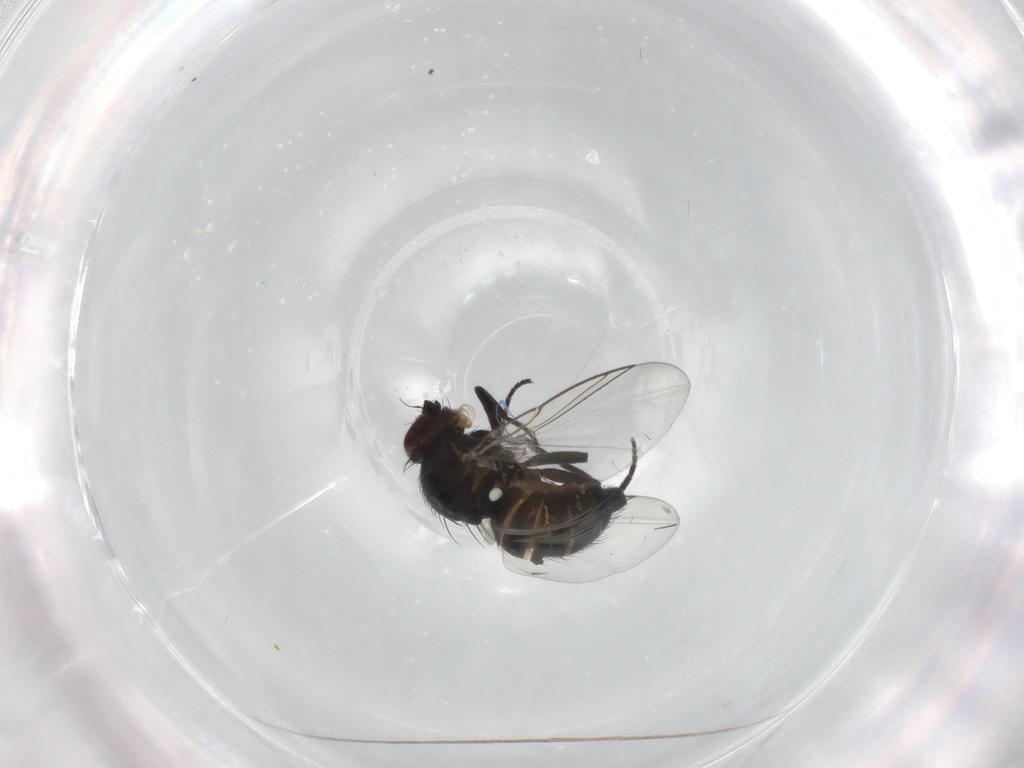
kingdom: Animalia
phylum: Arthropoda
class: Insecta
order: Diptera
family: Agromyzidae
